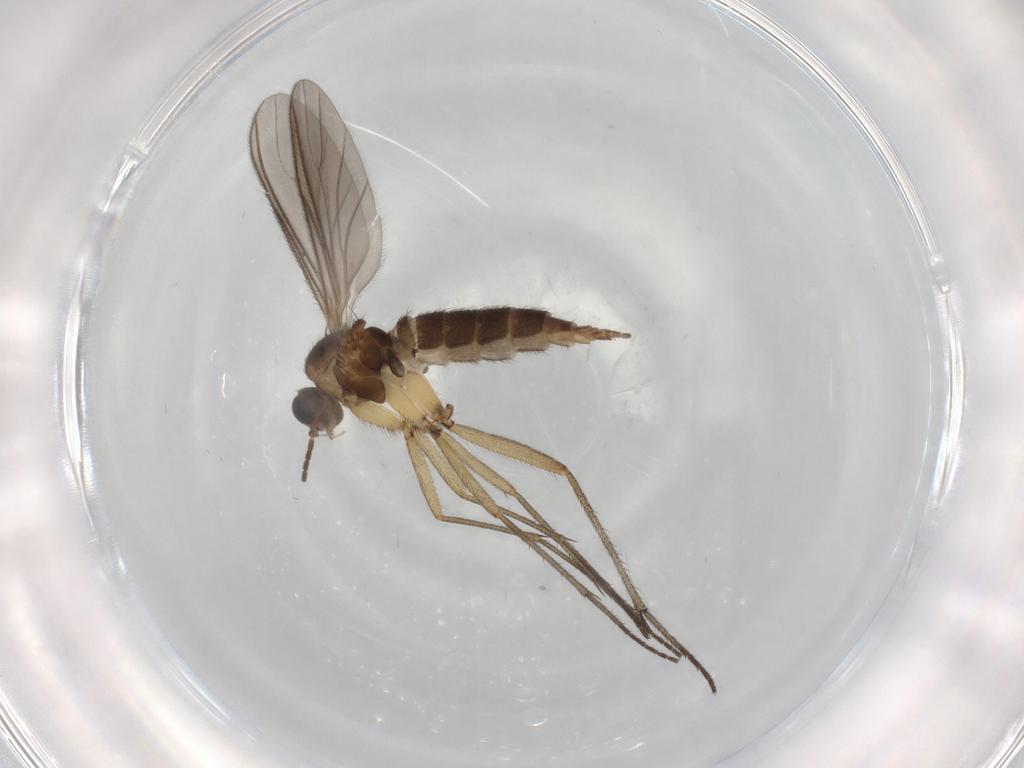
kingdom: Animalia
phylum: Arthropoda
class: Insecta
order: Diptera
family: Sciaridae
